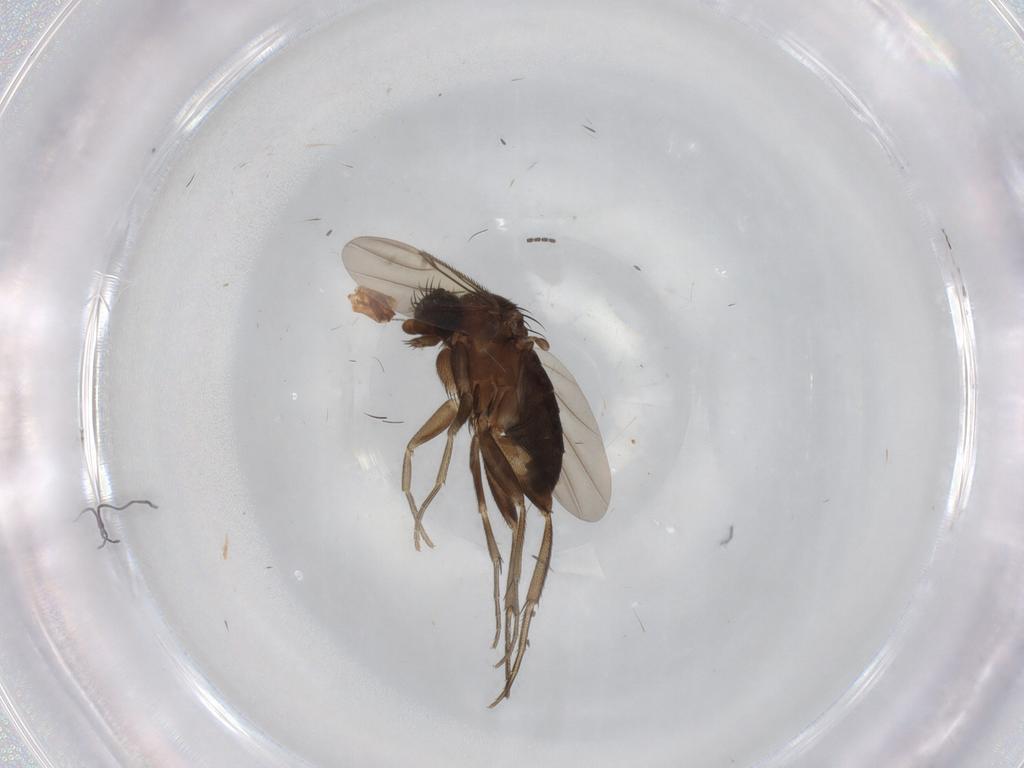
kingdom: Animalia
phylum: Arthropoda
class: Insecta
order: Diptera
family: Phoridae
